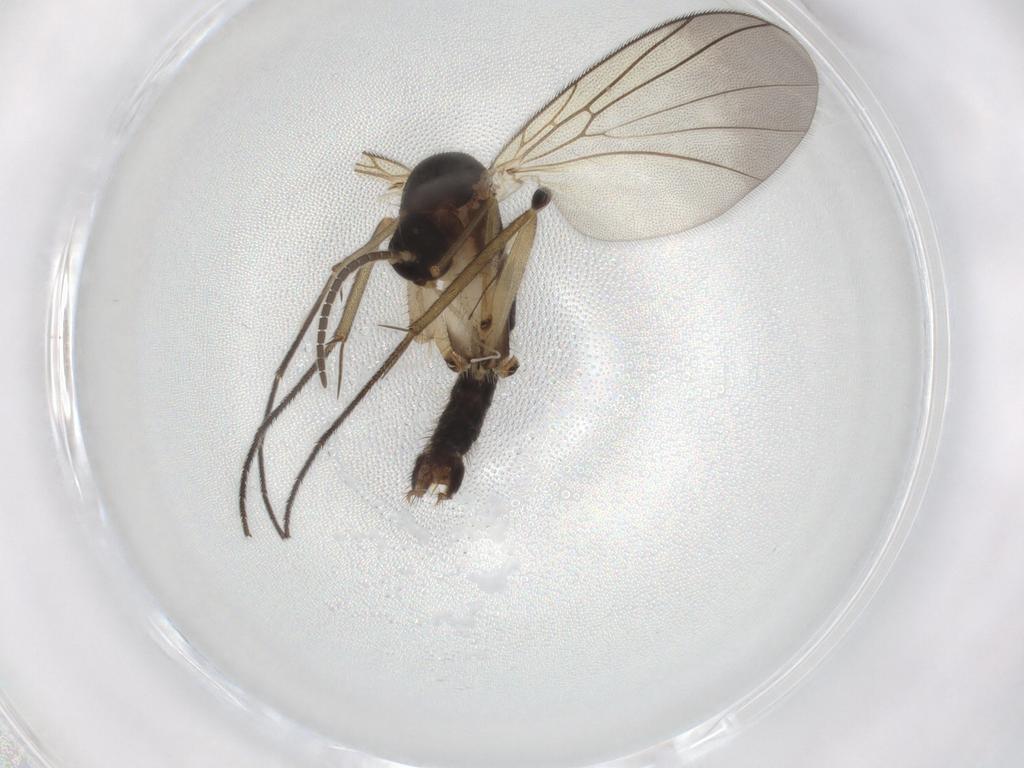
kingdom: Animalia
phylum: Arthropoda
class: Insecta
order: Diptera
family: Mycetophilidae
